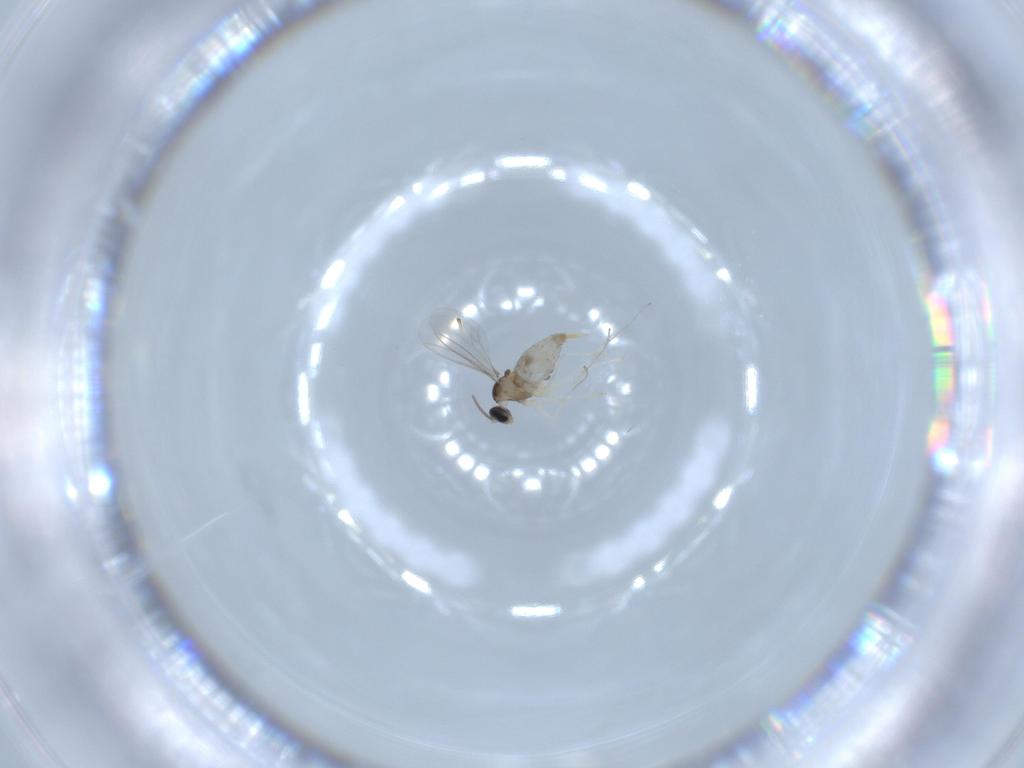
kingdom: Animalia
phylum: Arthropoda
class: Insecta
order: Diptera
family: Cecidomyiidae
